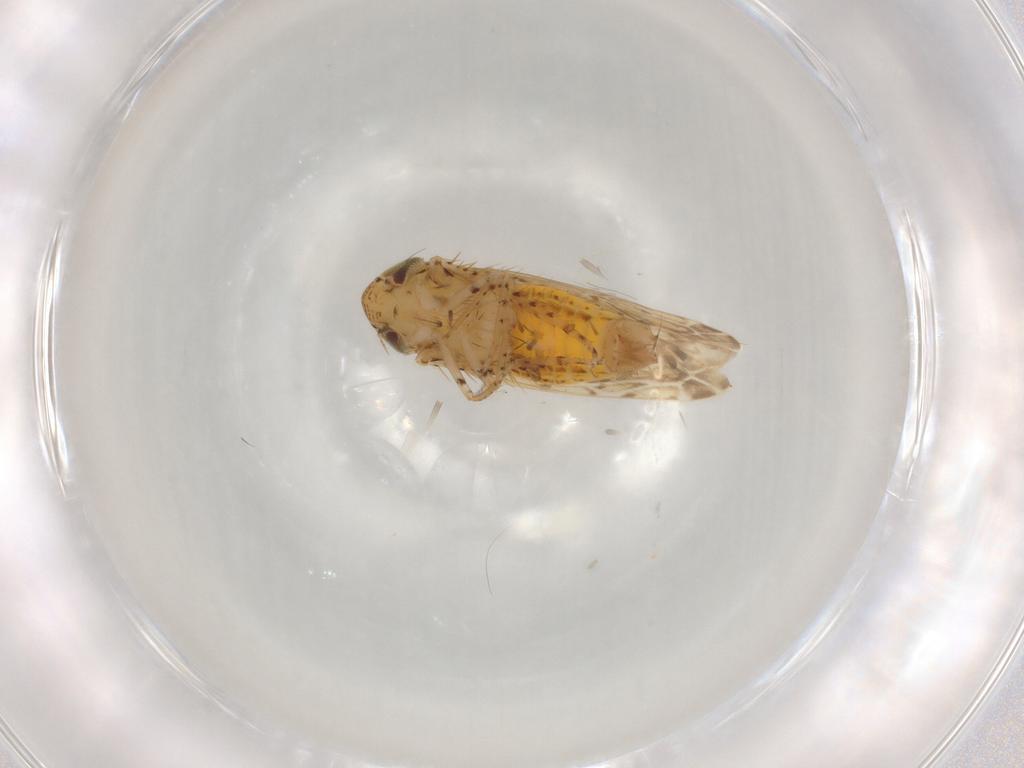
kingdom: Animalia
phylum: Arthropoda
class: Insecta
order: Hemiptera
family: Cicadellidae
